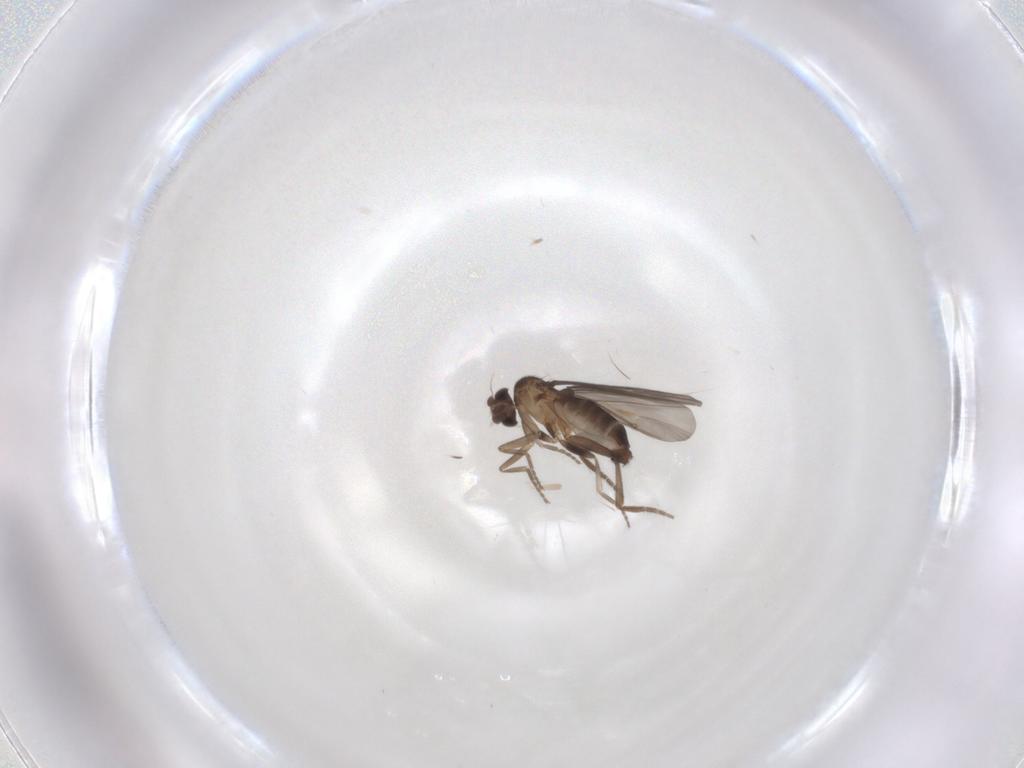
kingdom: Animalia
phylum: Arthropoda
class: Insecta
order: Diptera
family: Phoridae
